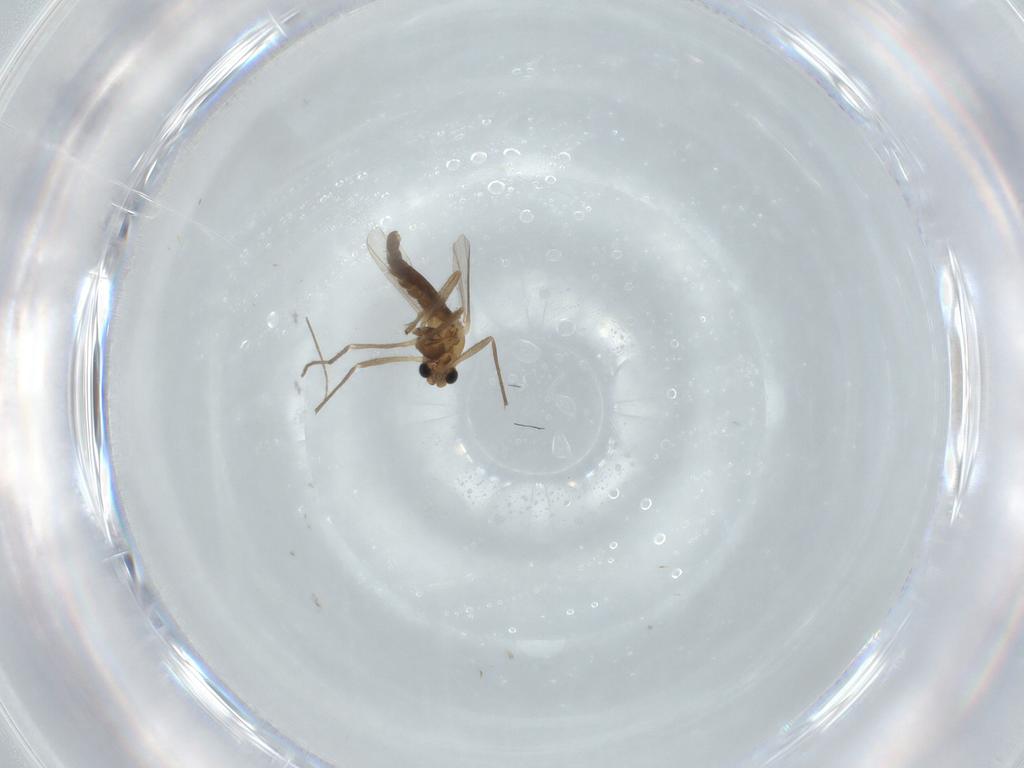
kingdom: Animalia
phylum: Arthropoda
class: Insecta
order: Diptera
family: Chironomidae
